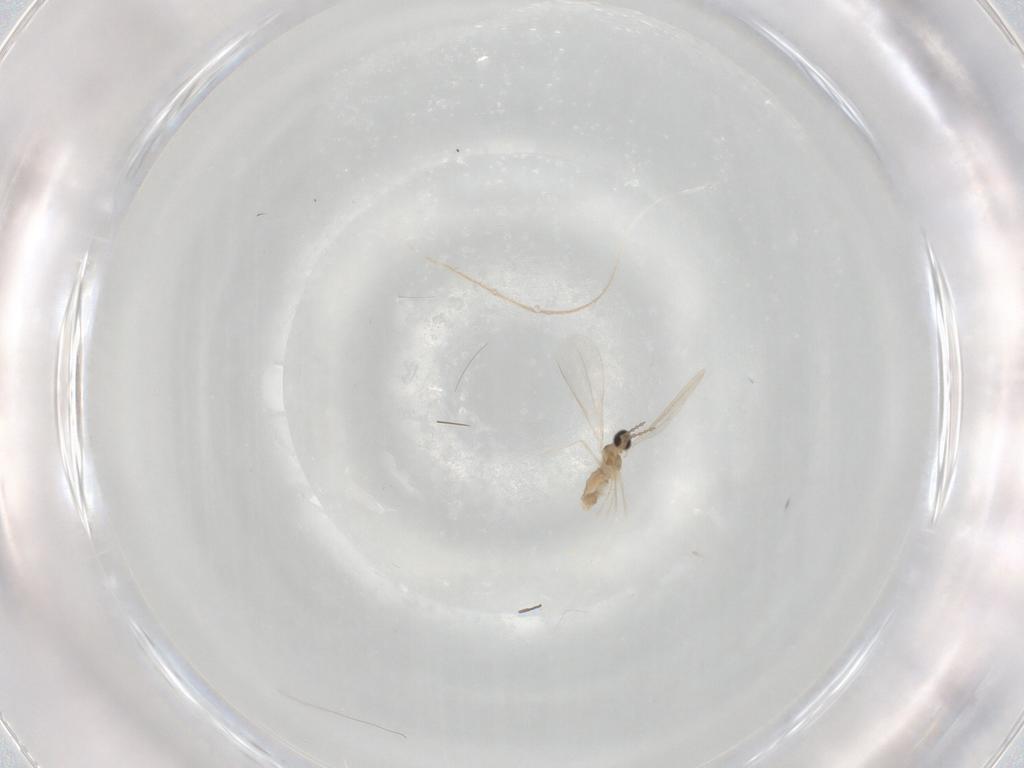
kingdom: Animalia
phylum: Arthropoda
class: Insecta
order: Diptera
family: Cecidomyiidae
